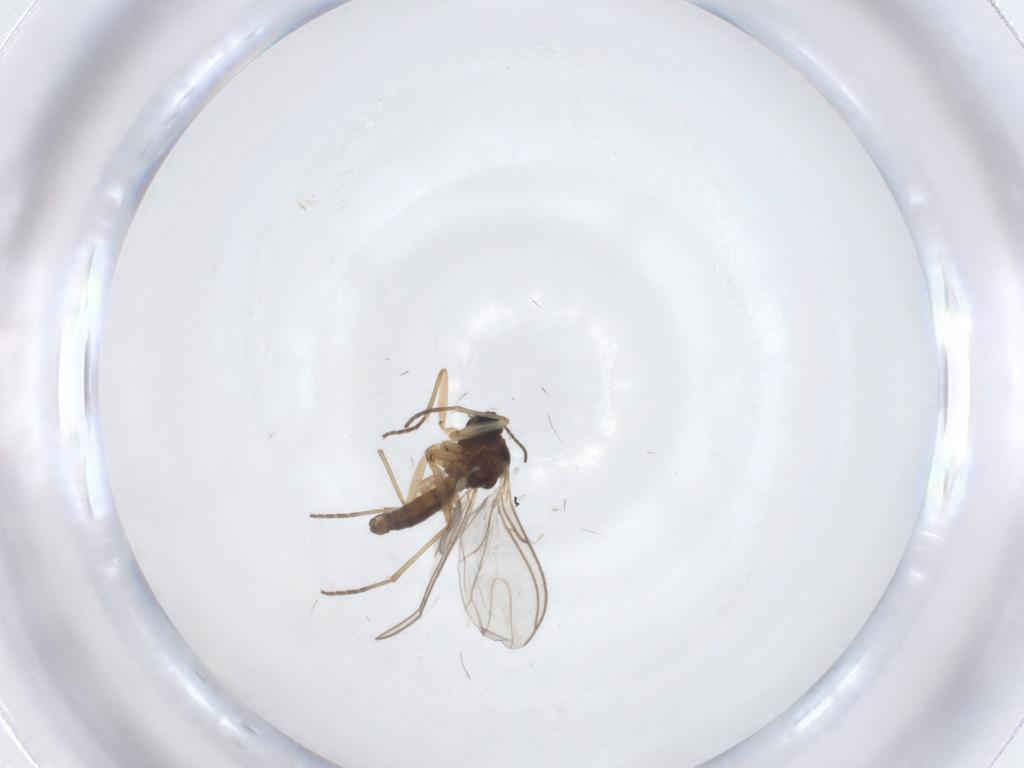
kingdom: Animalia
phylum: Arthropoda
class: Insecta
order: Diptera
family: Sciaridae
